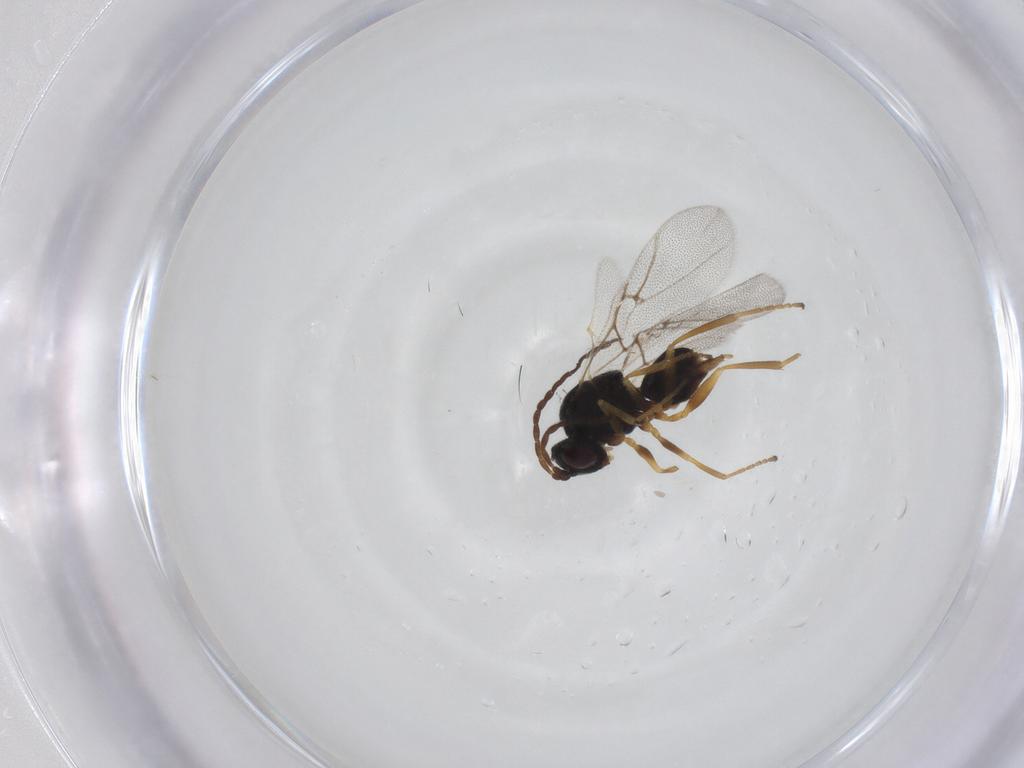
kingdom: Animalia
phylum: Arthropoda
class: Insecta
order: Hymenoptera
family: Cynipidae
